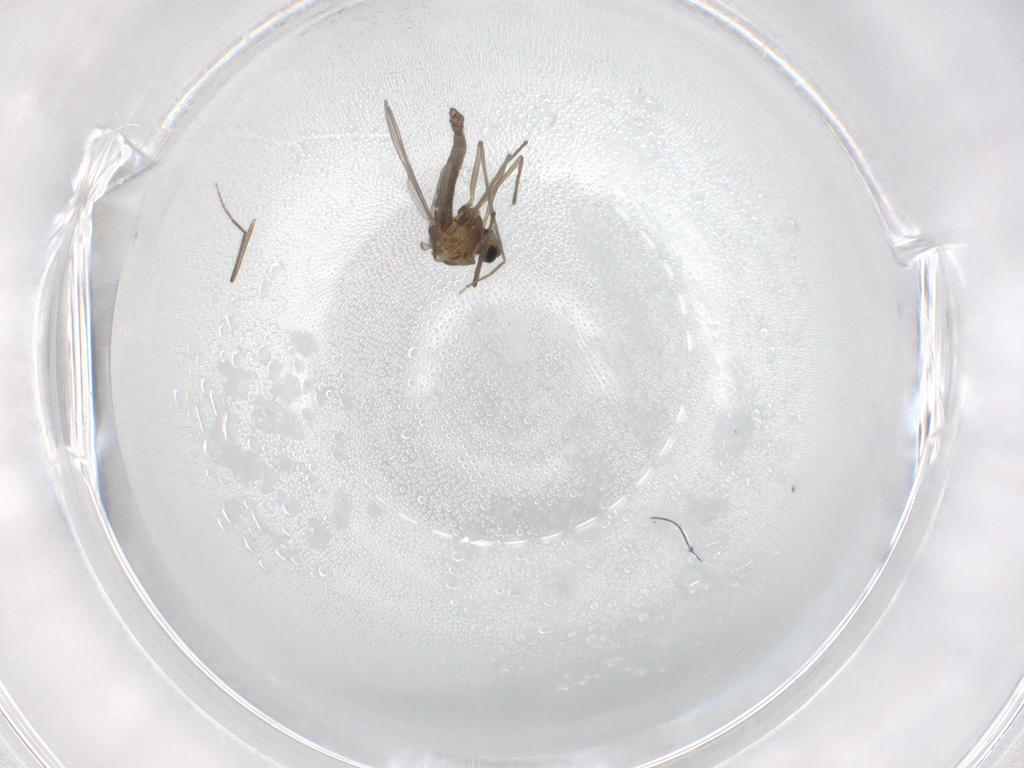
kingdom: Animalia
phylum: Arthropoda
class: Insecta
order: Diptera
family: Chironomidae
